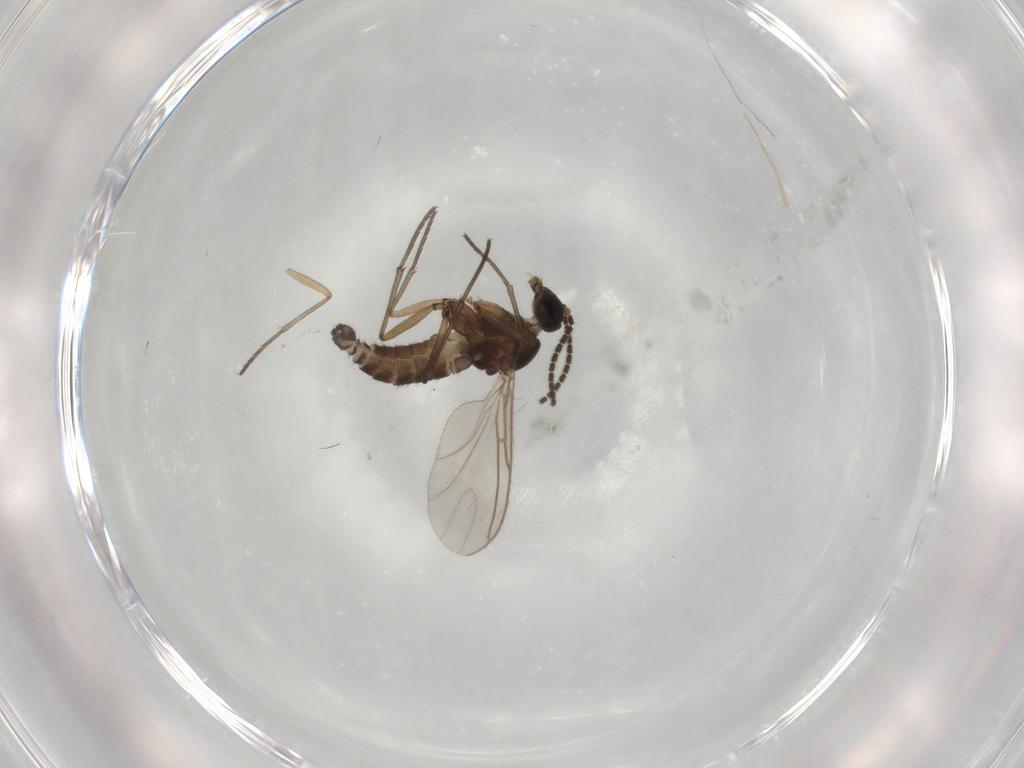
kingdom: Animalia
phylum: Arthropoda
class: Insecta
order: Diptera
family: Sciaridae
